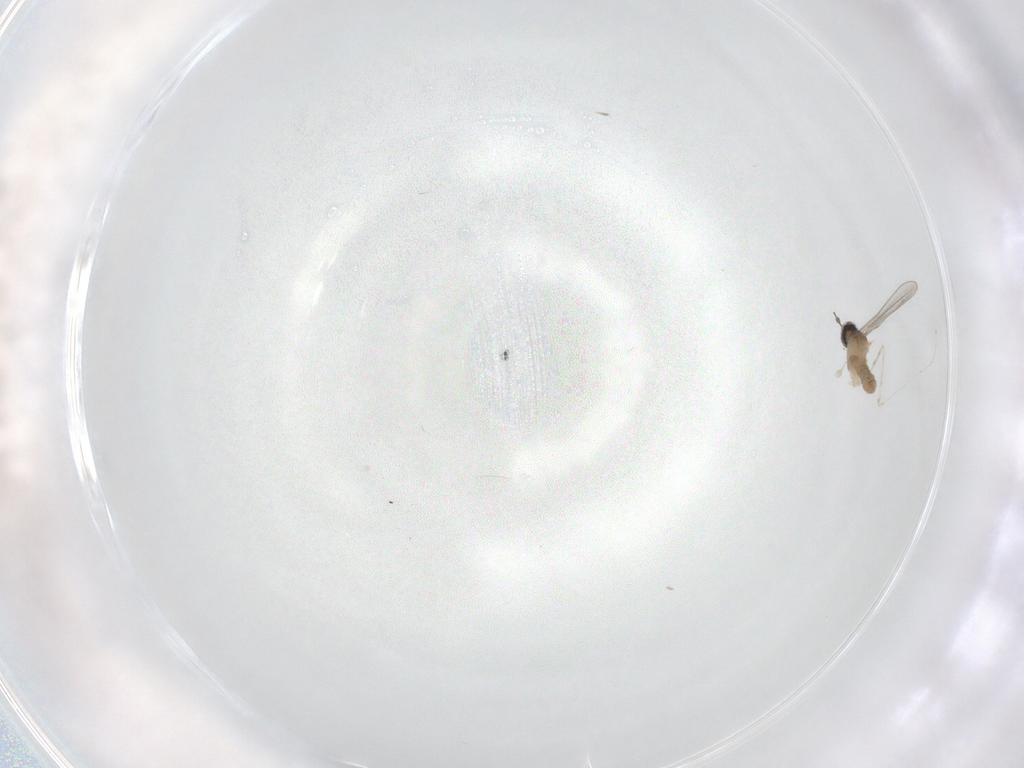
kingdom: Animalia
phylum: Arthropoda
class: Insecta
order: Diptera
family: Cecidomyiidae
